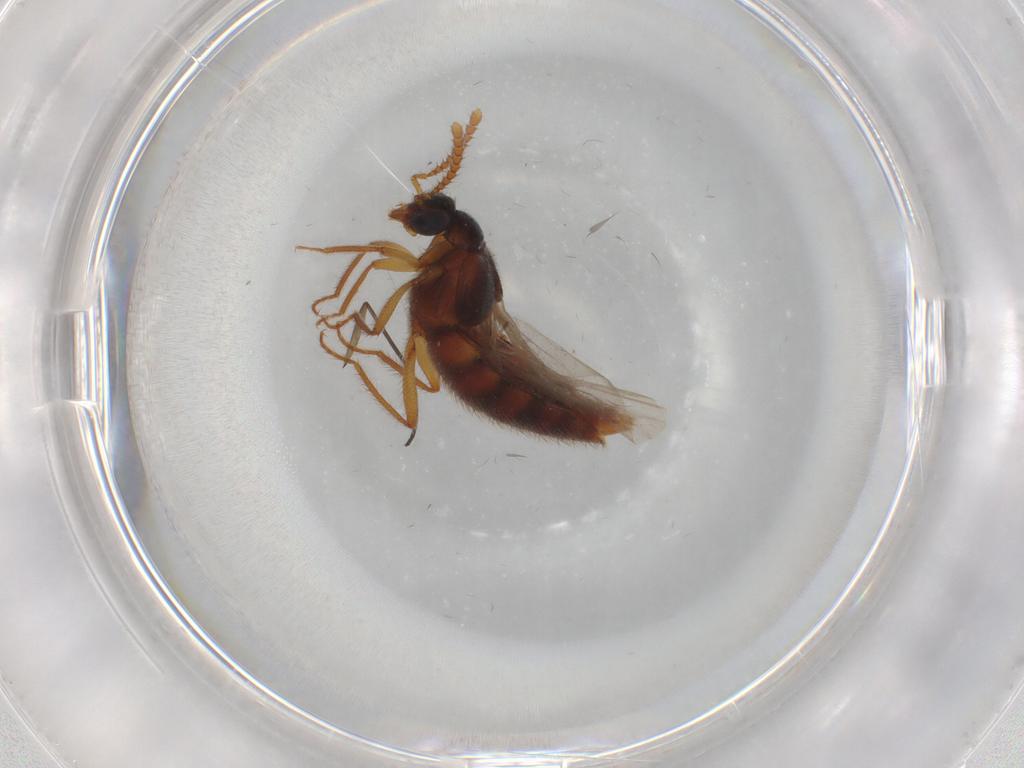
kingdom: Animalia
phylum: Arthropoda
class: Insecta
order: Coleoptera
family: Staphylinidae
